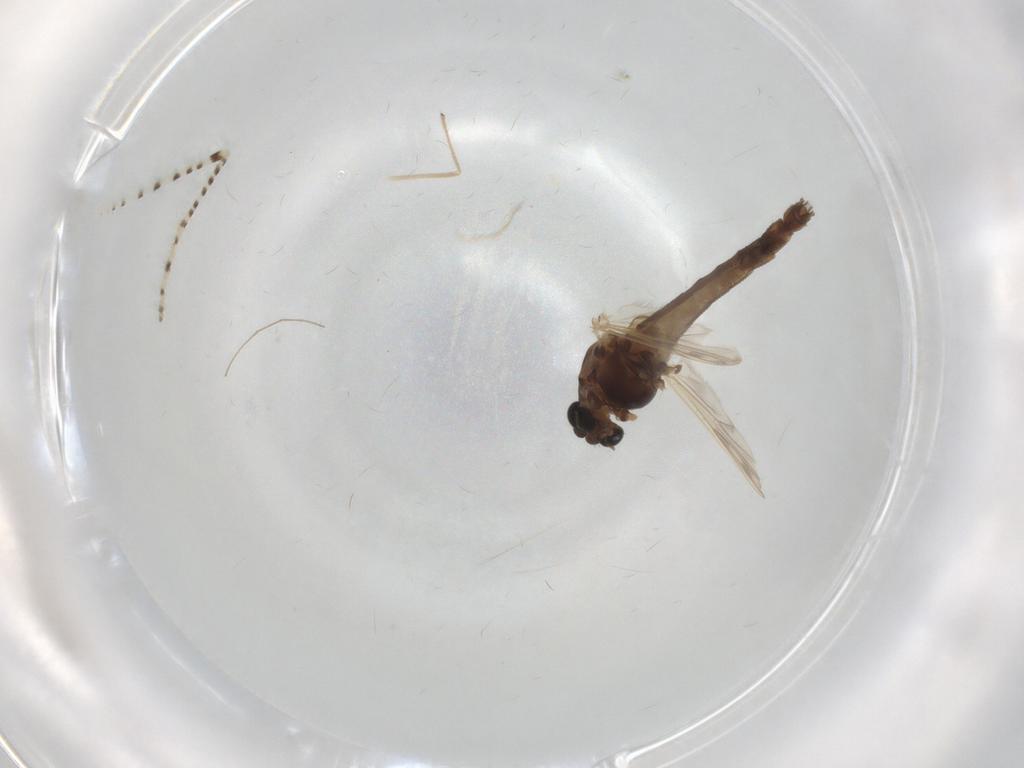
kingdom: Animalia
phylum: Arthropoda
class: Insecta
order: Diptera
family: Chironomidae
